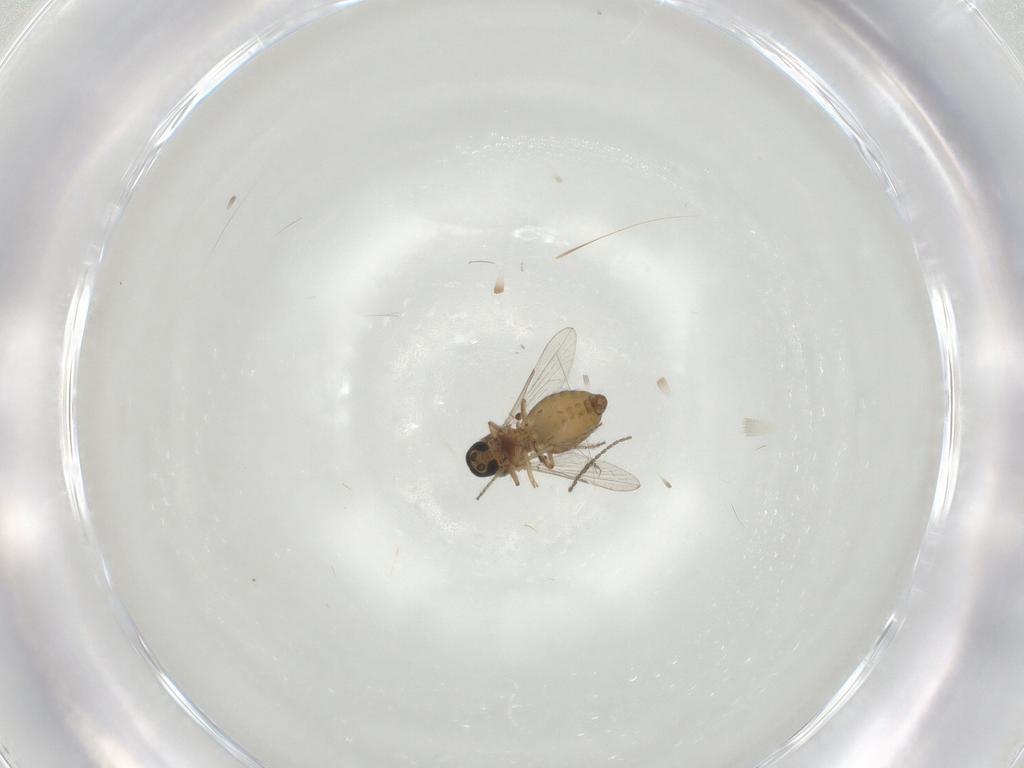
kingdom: Animalia
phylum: Arthropoda
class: Insecta
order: Diptera
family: Ceratopogonidae
